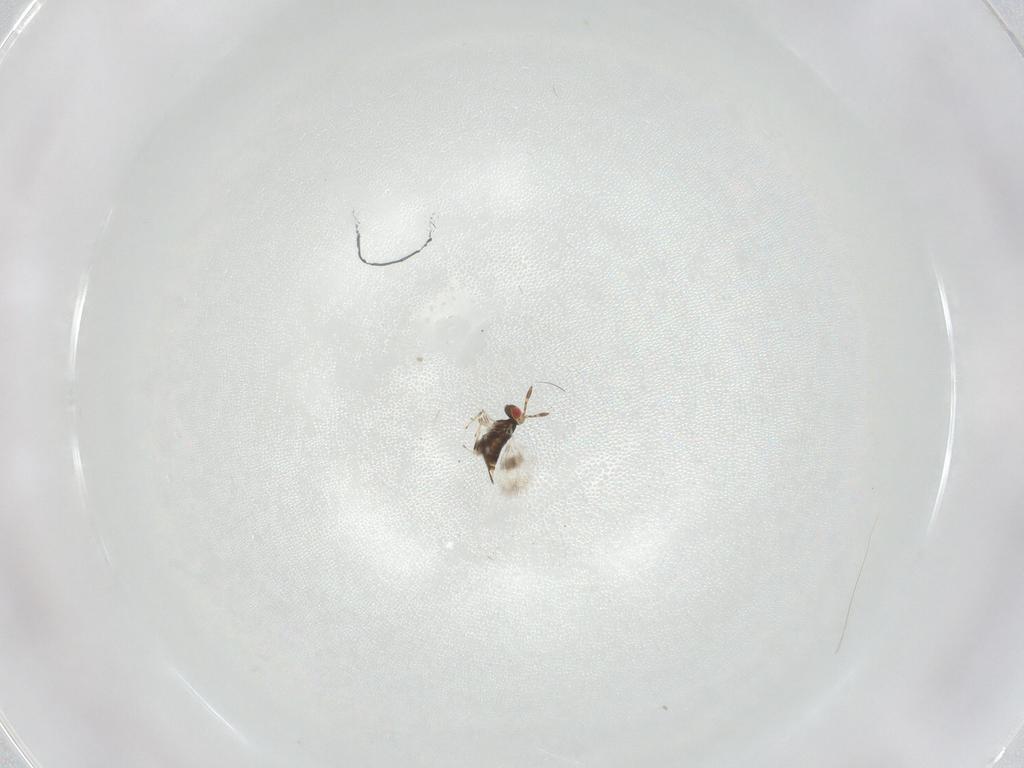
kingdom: Animalia
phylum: Arthropoda
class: Insecta
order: Hymenoptera
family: Azotidae
